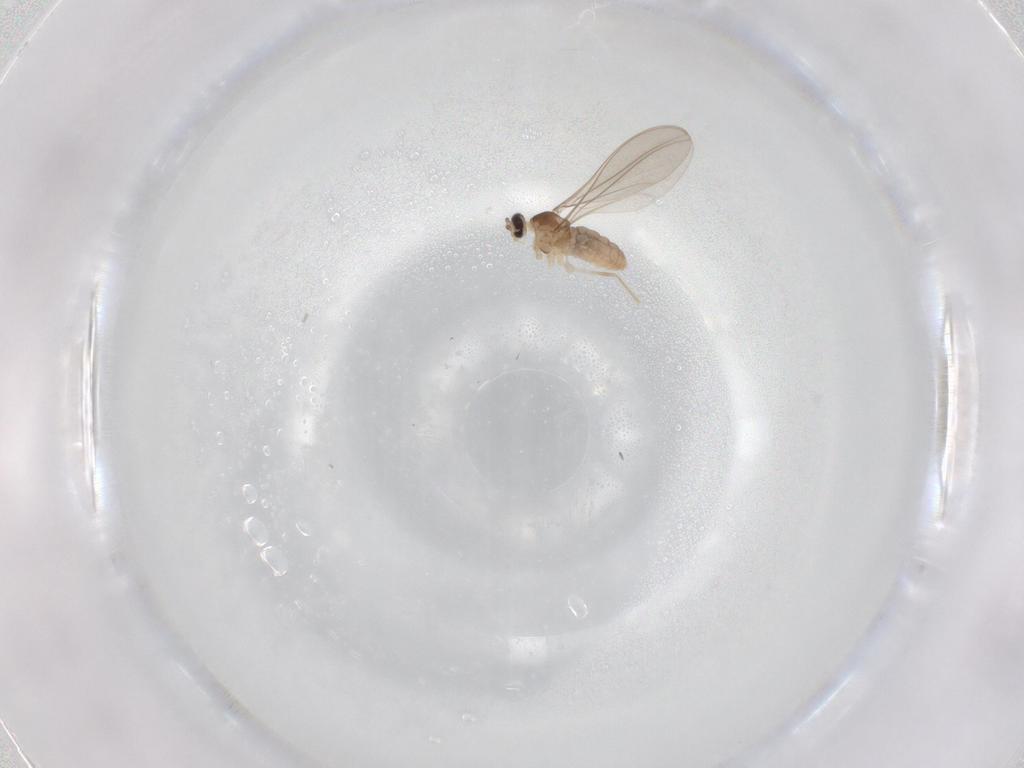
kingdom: Animalia
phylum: Arthropoda
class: Insecta
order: Diptera
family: Cecidomyiidae
